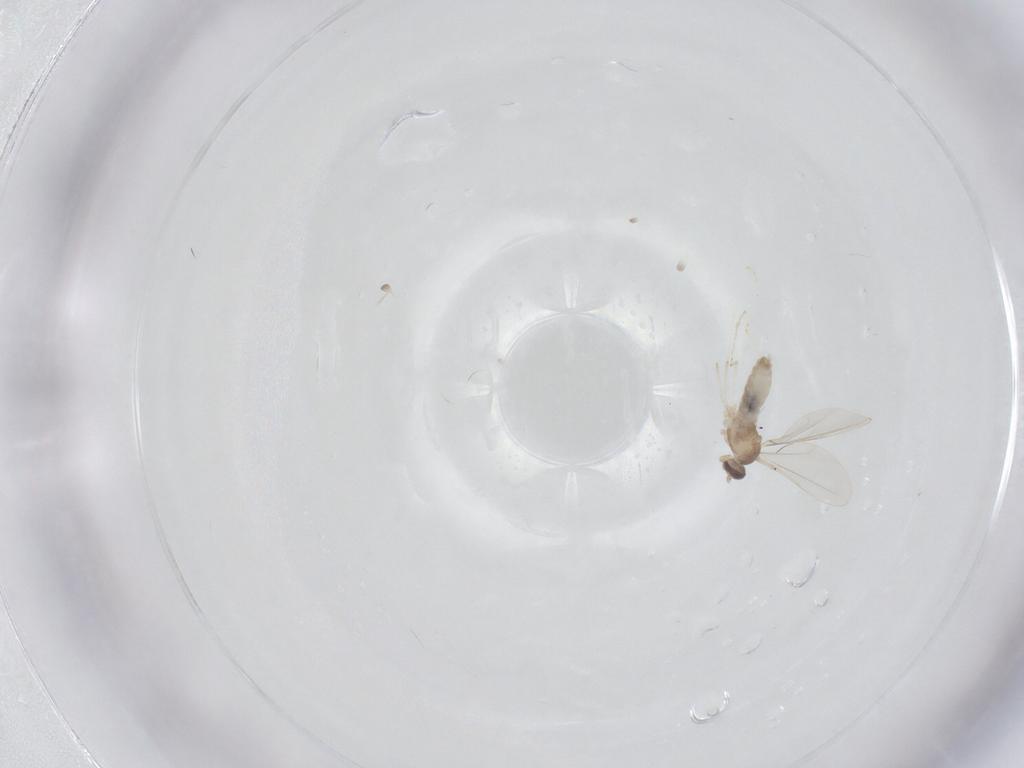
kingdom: Animalia
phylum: Arthropoda
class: Insecta
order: Diptera
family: Cecidomyiidae
